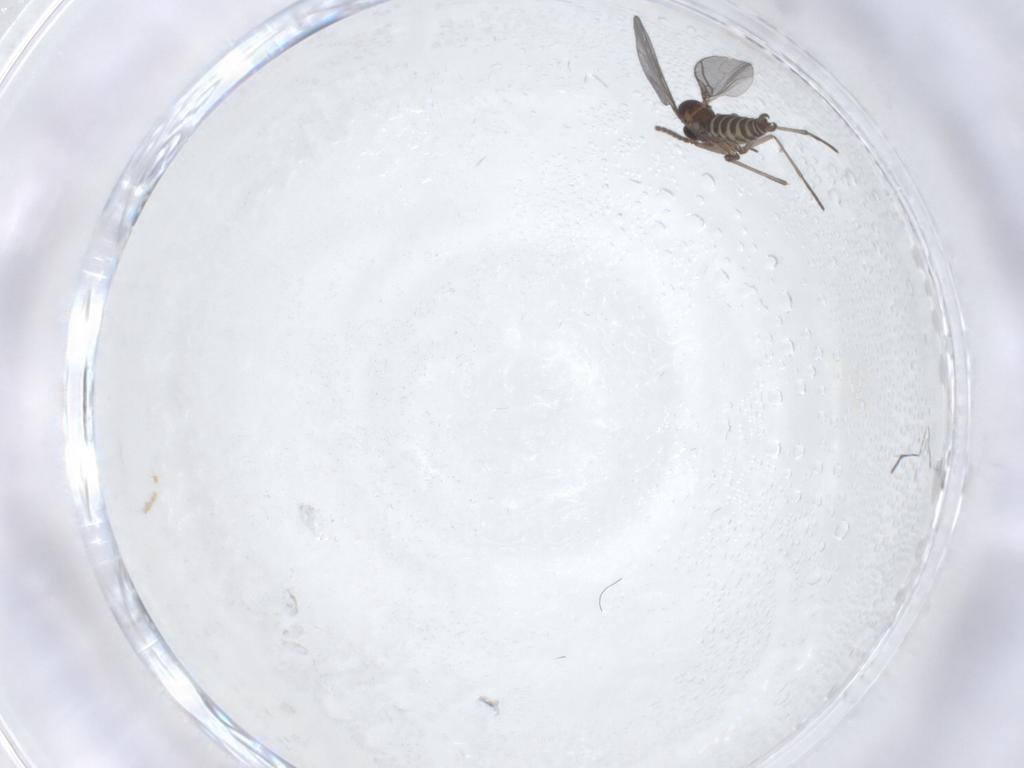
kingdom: Animalia
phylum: Arthropoda
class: Insecta
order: Diptera
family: Sciaridae
